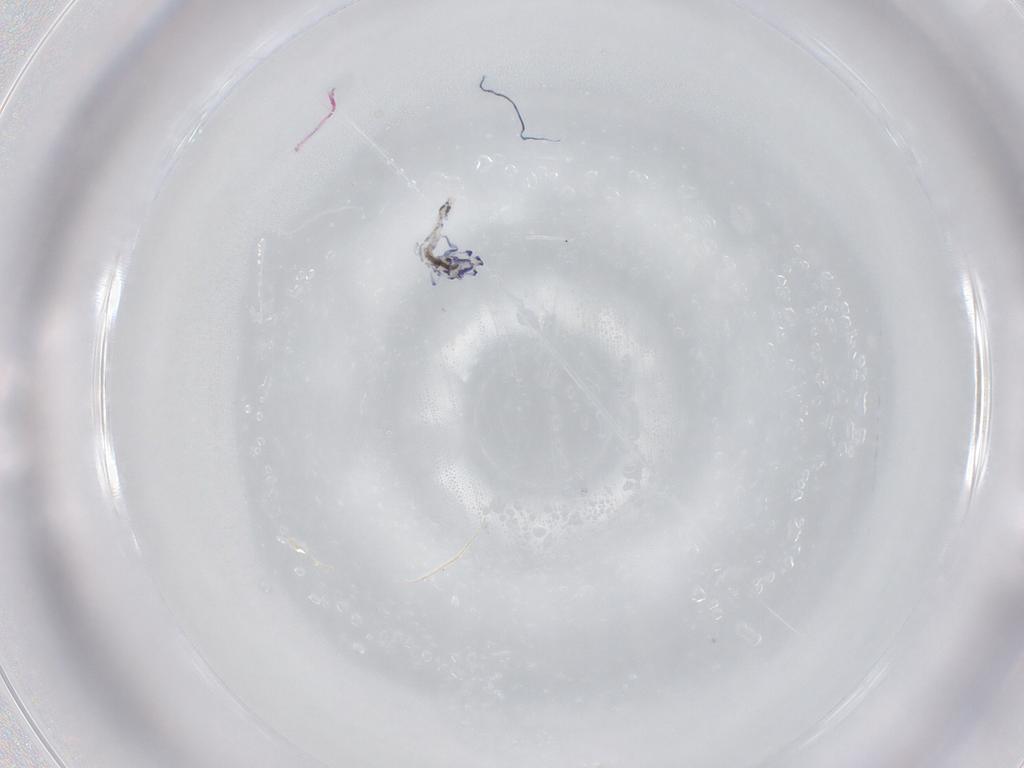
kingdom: Animalia
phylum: Arthropoda
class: Collembola
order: Entomobryomorpha
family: Entomobryidae
